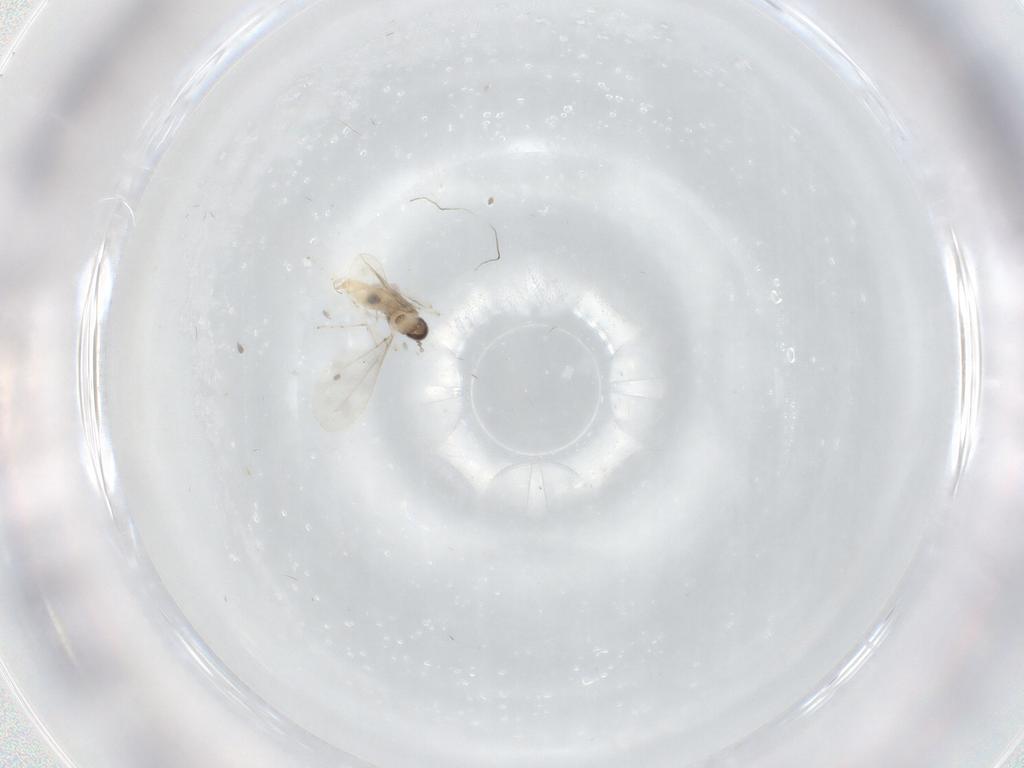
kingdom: Animalia
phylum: Arthropoda
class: Insecta
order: Diptera
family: Cecidomyiidae
